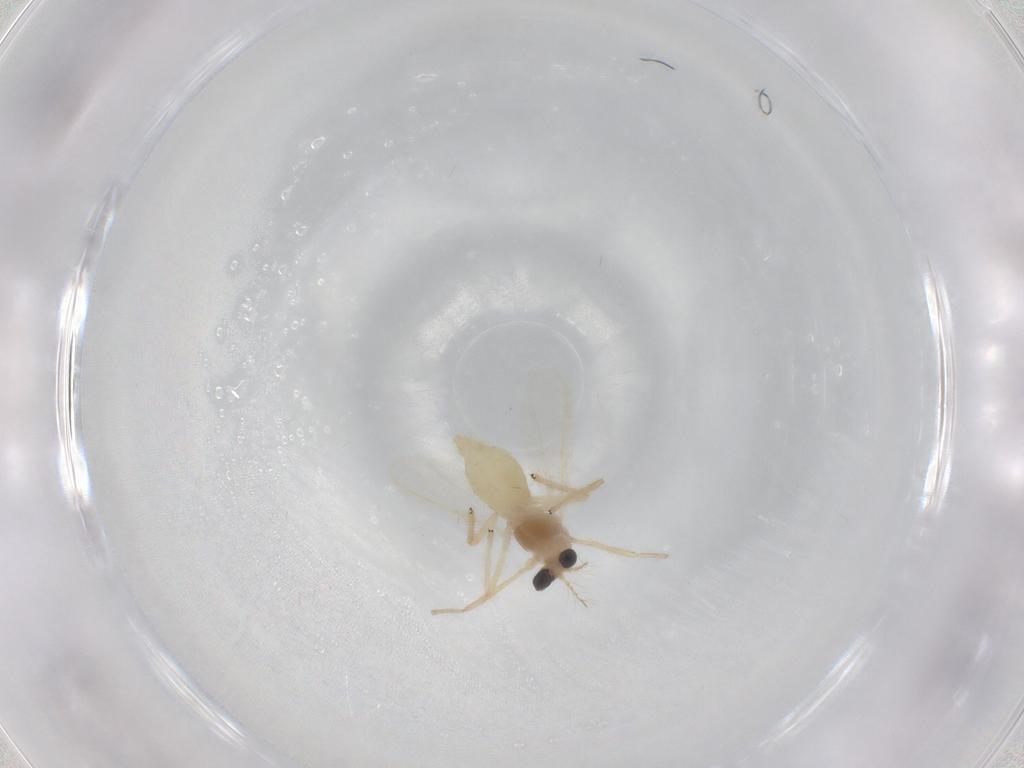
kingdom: Animalia
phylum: Arthropoda
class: Insecta
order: Diptera
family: Chironomidae
